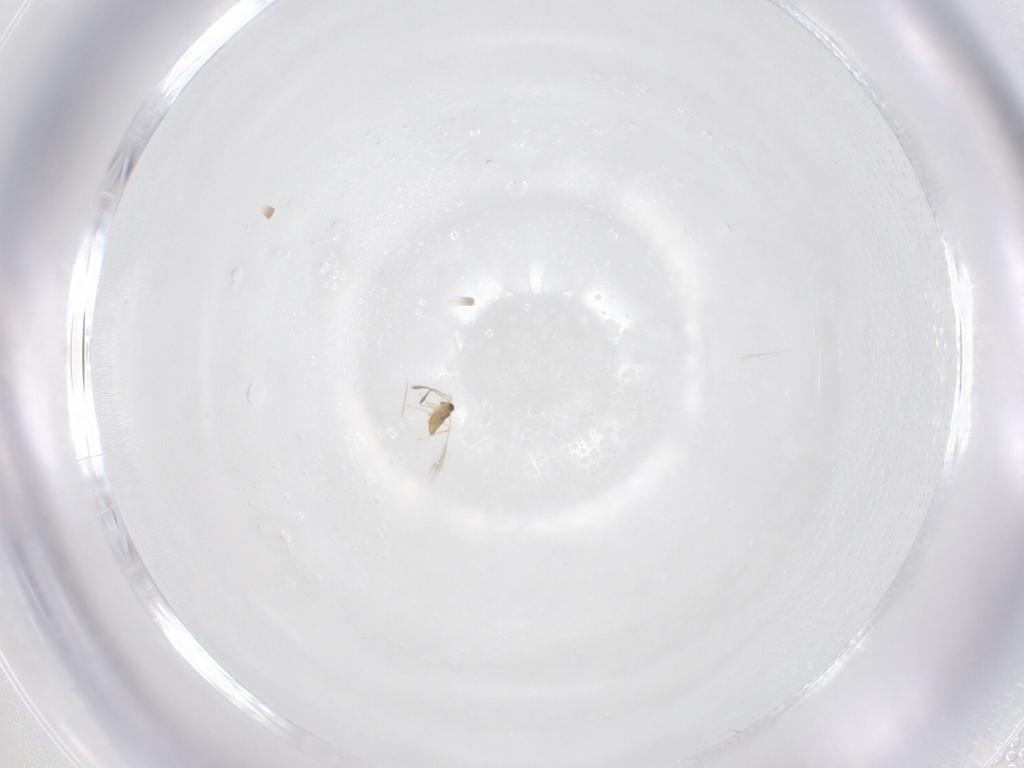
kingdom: Animalia
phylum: Arthropoda
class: Insecta
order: Hymenoptera
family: Mymaridae
